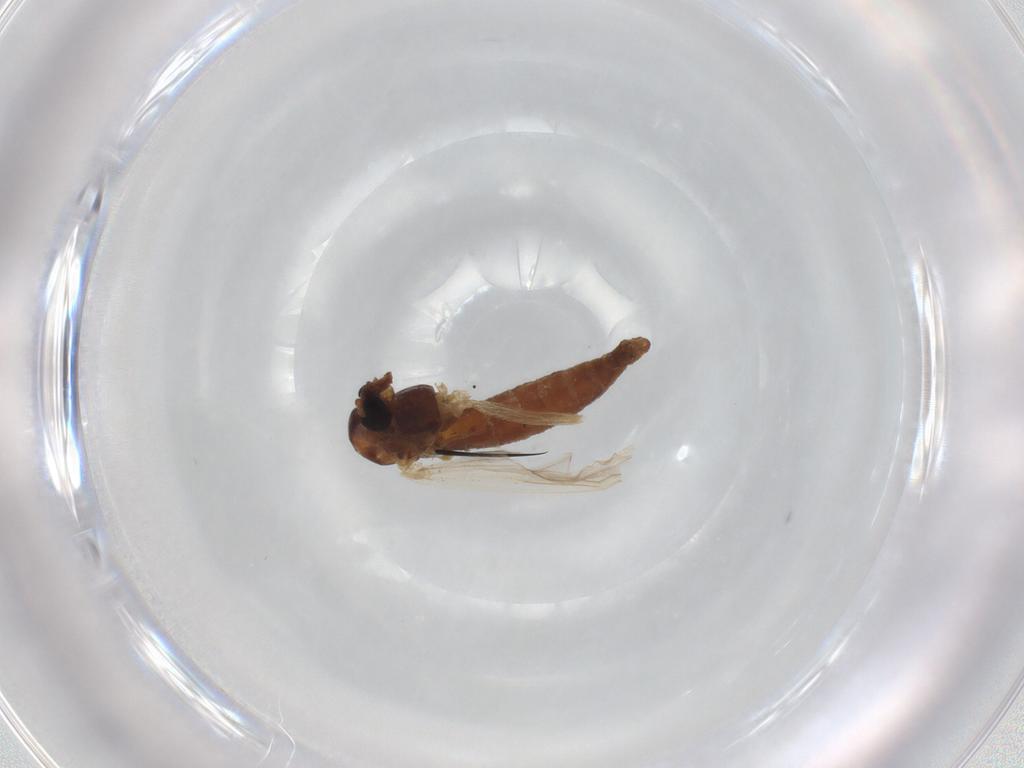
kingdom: Animalia
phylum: Arthropoda
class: Insecta
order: Diptera
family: Chironomidae
